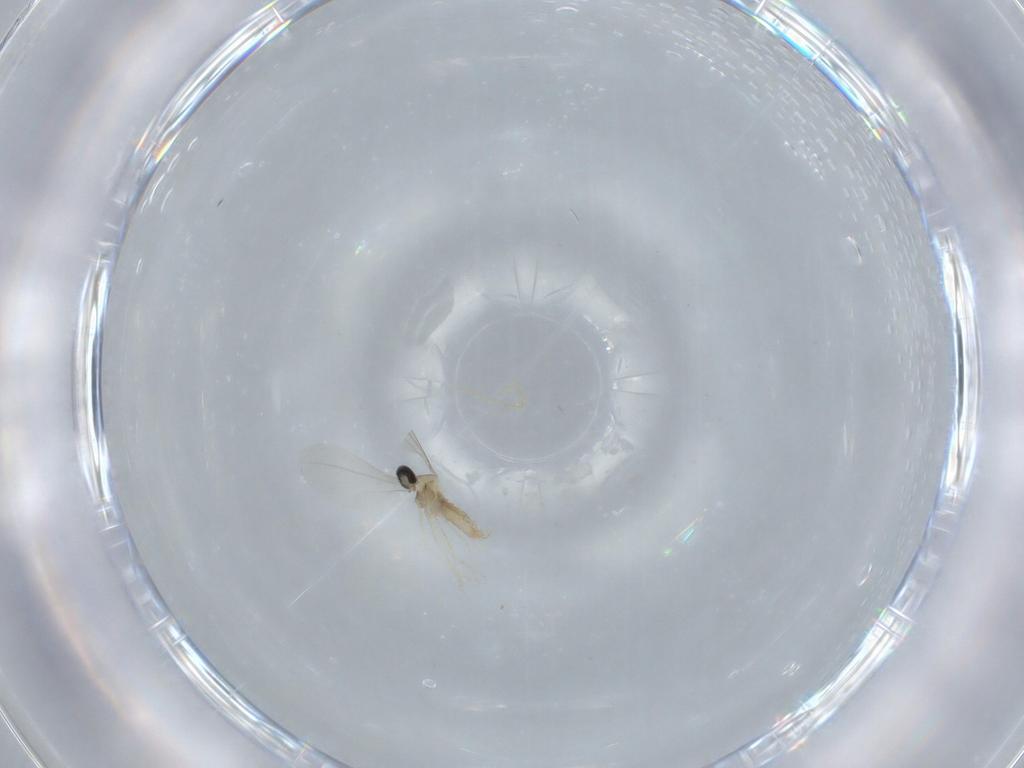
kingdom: Animalia
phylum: Arthropoda
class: Insecta
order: Diptera
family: Cecidomyiidae
